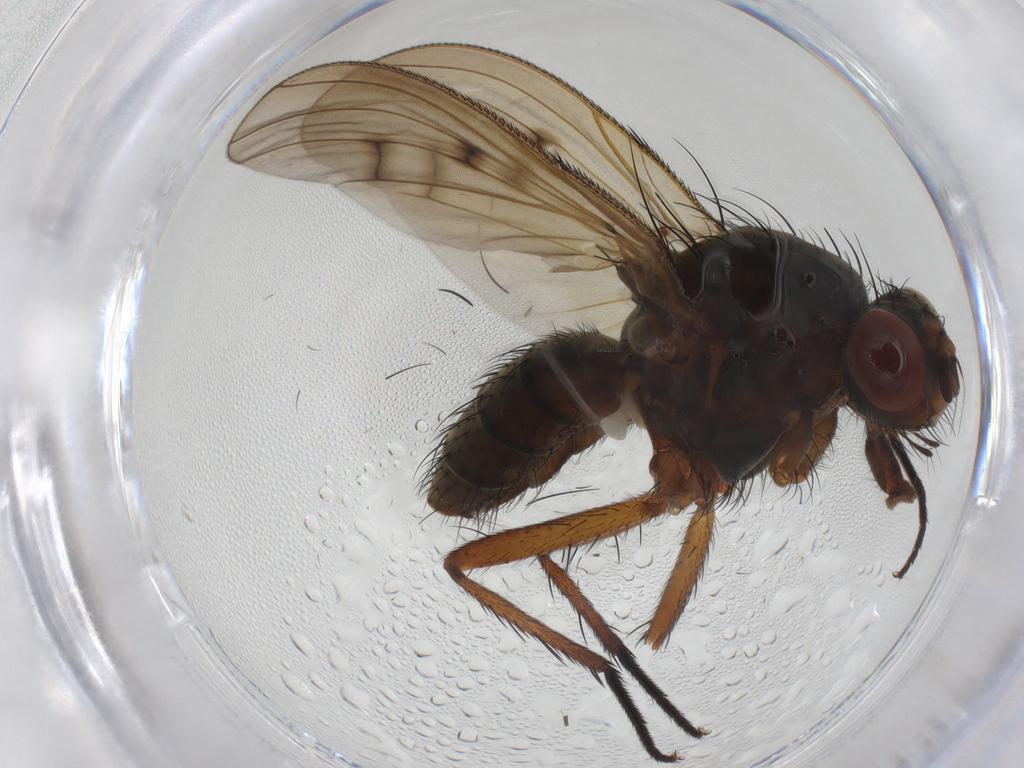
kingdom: Animalia
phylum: Arthropoda
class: Insecta
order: Diptera
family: Anthomyiidae
